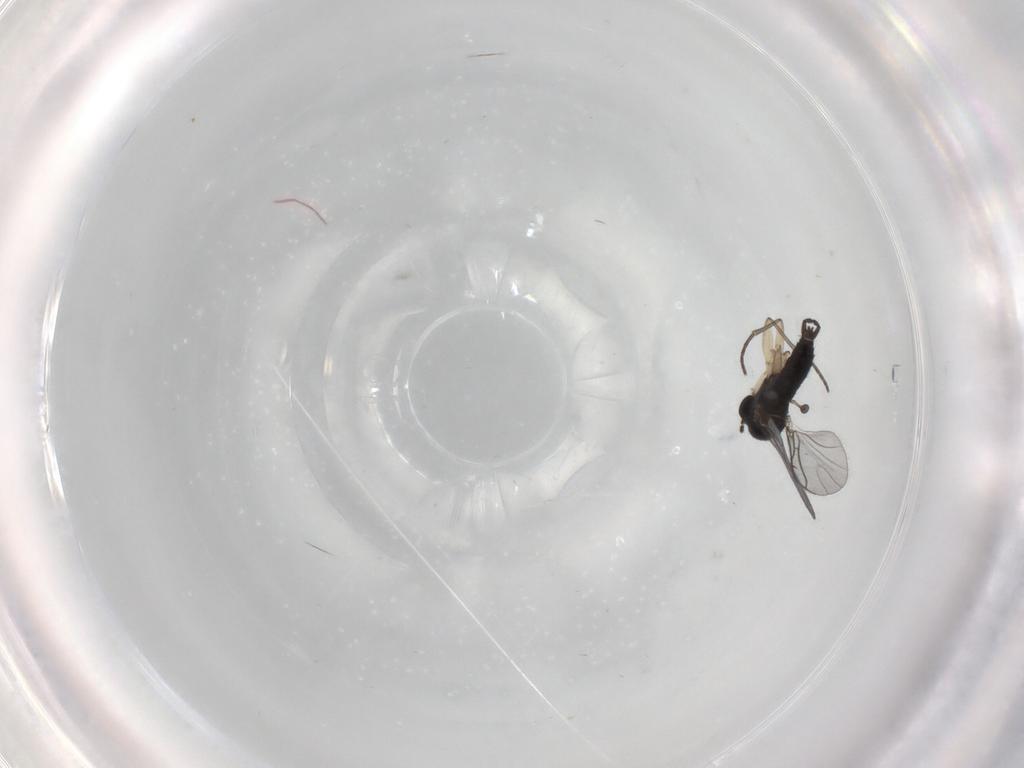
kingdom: Animalia
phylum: Arthropoda
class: Insecta
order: Diptera
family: Sciaridae
